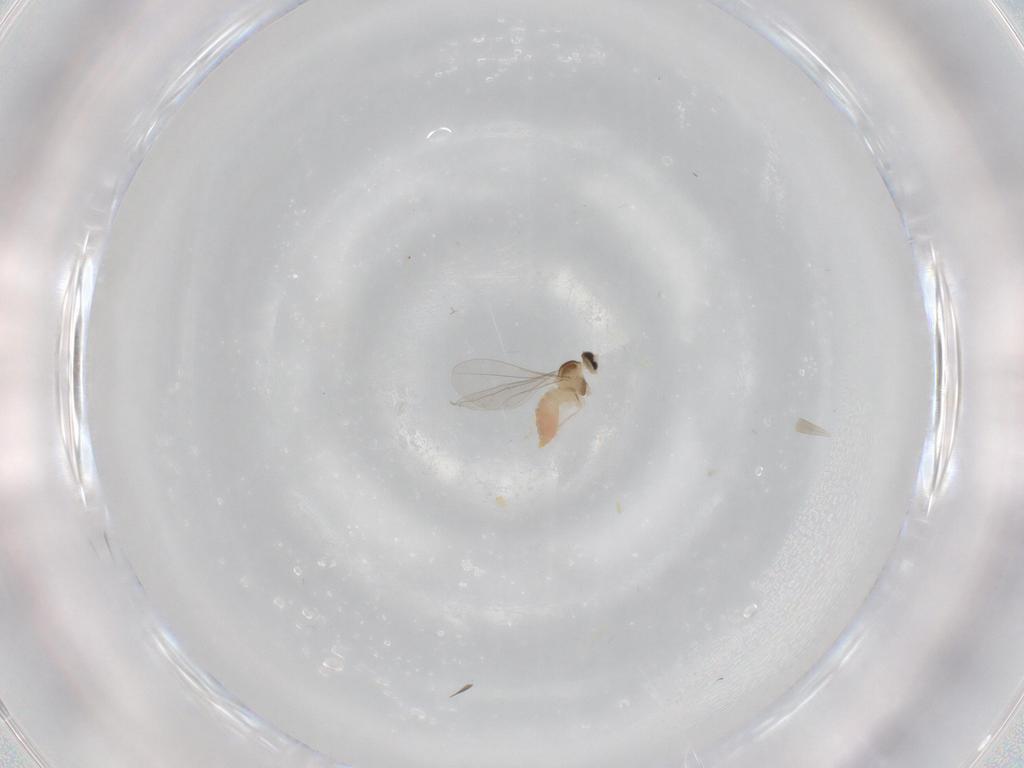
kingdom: Animalia
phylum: Arthropoda
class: Insecta
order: Diptera
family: Cecidomyiidae
